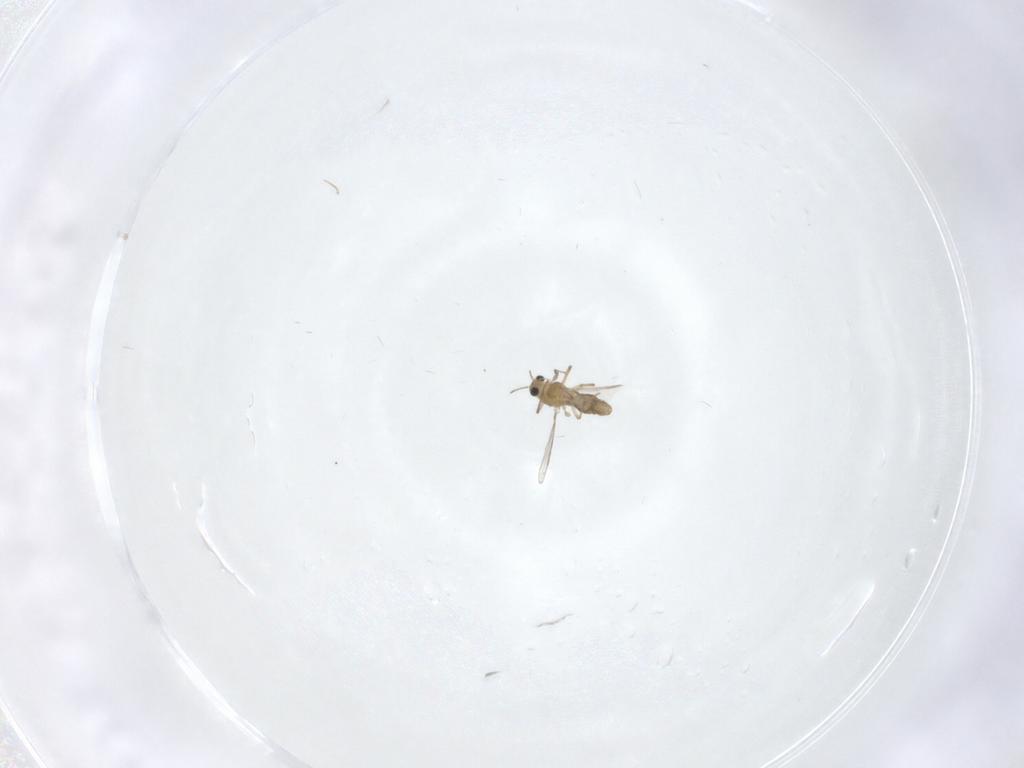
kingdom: Animalia
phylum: Arthropoda
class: Insecta
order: Diptera
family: Chironomidae
